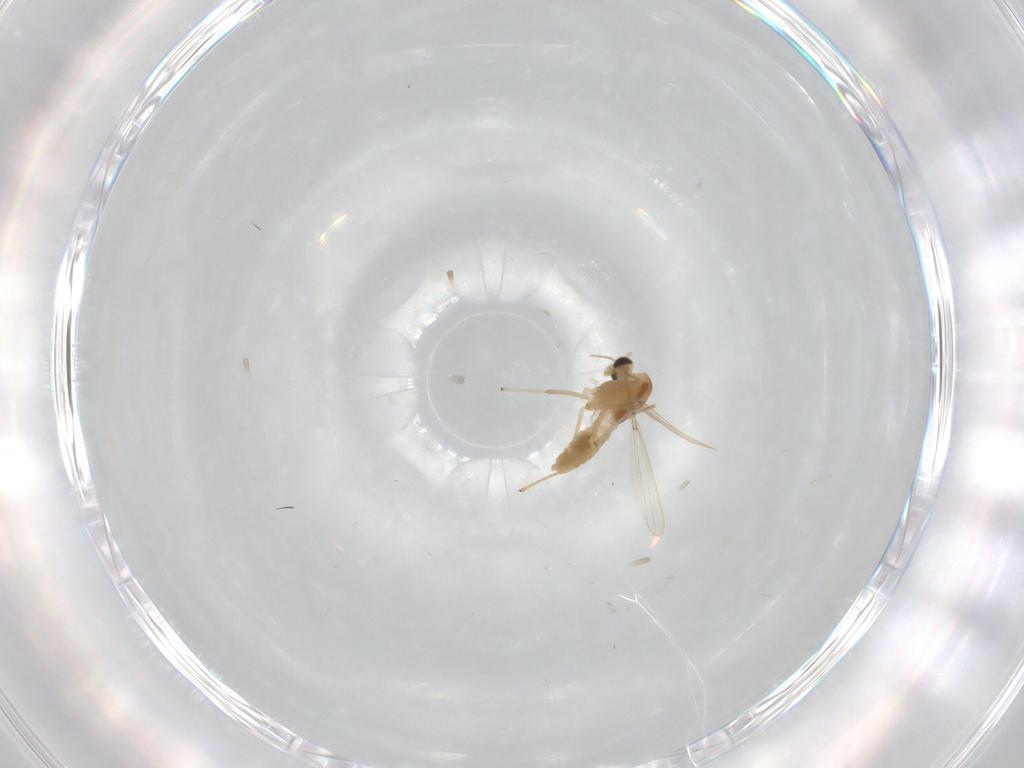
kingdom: Animalia
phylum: Arthropoda
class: Insecta
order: Diptera
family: Chironomidae
